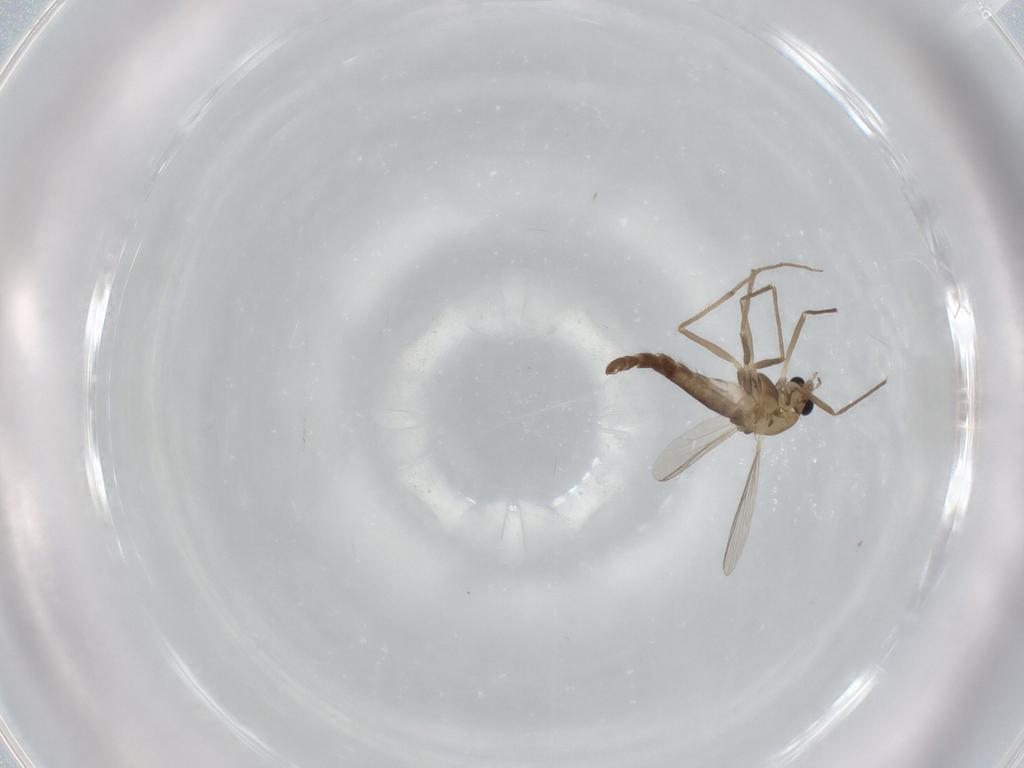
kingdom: Animalia
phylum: Arthropoda
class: Insecta
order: Diptera
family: Chironomidae
